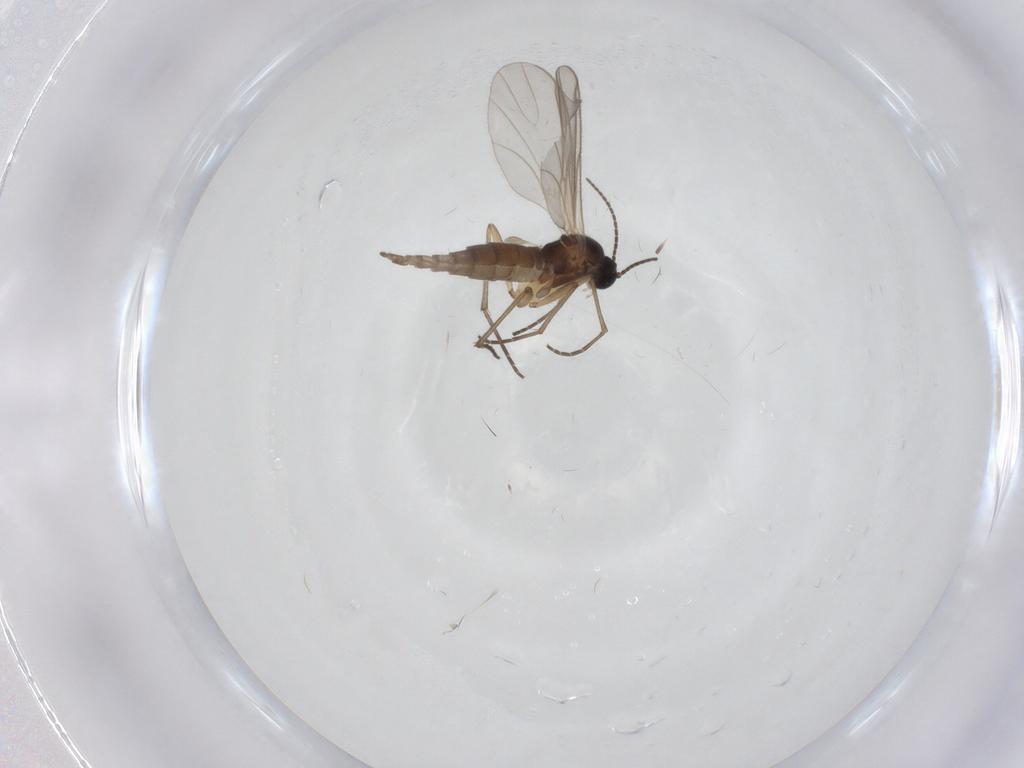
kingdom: Animalia
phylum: Arthropoda
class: Insecta
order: Diptera
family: Sciaridae
